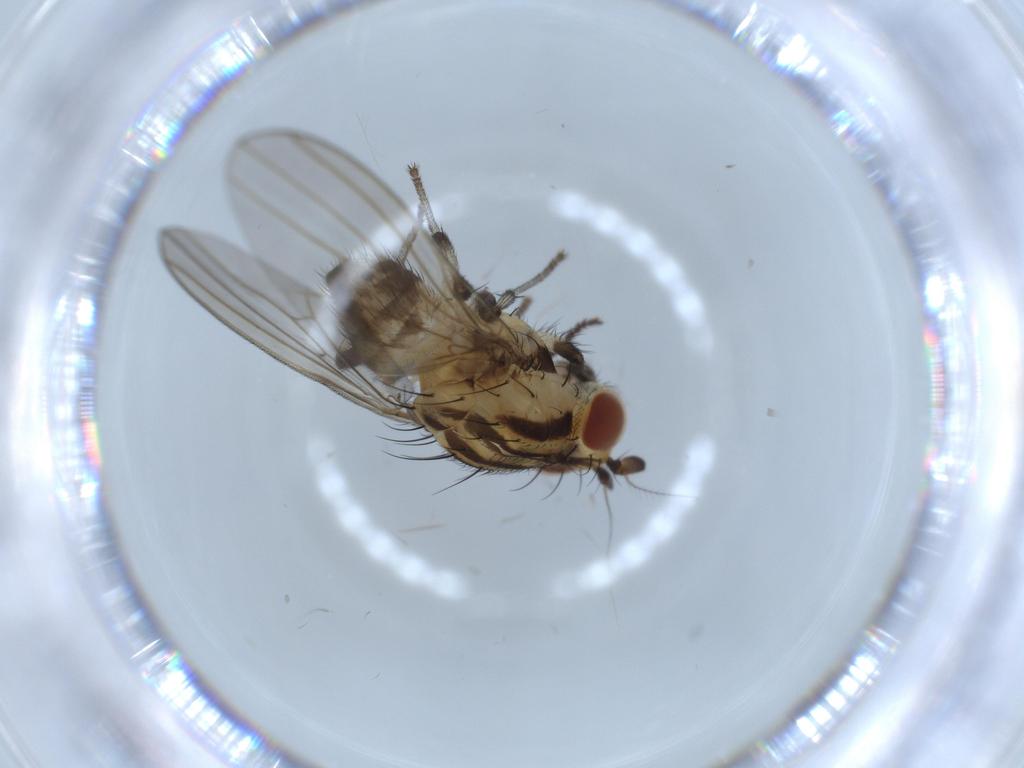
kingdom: Animalia
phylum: Arthropoda
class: Insecta
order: Diptera
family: Lauxaniidae
